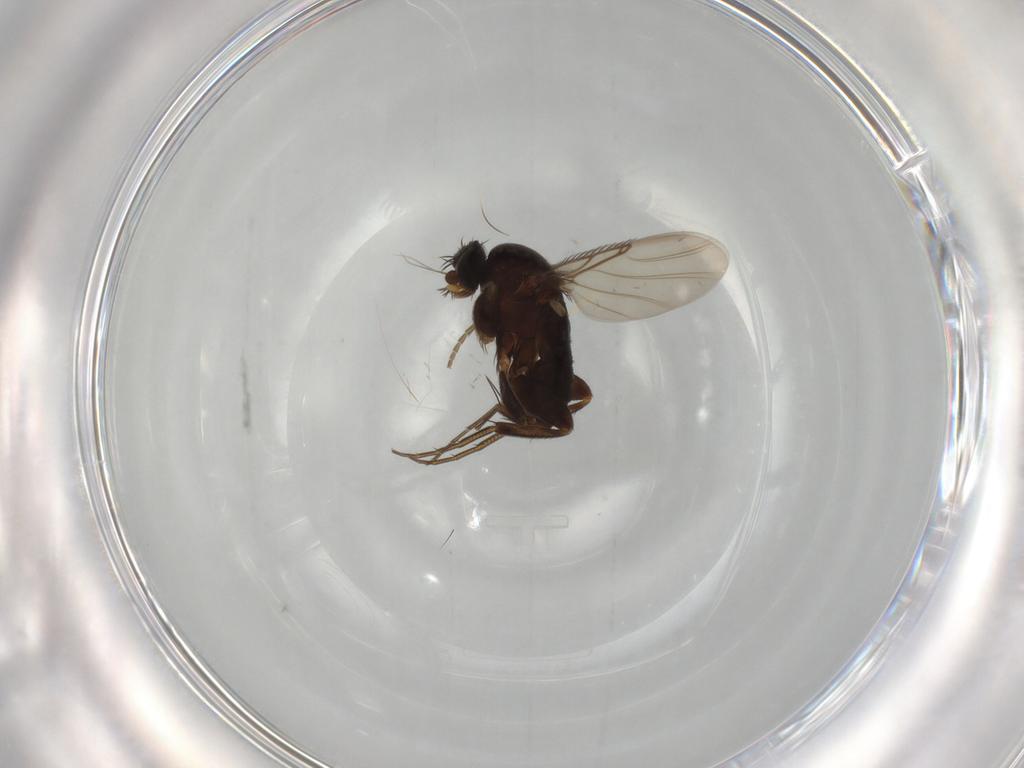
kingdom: Animalia
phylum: Arthropoda
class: Insecta
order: Diptera
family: Phoridae
